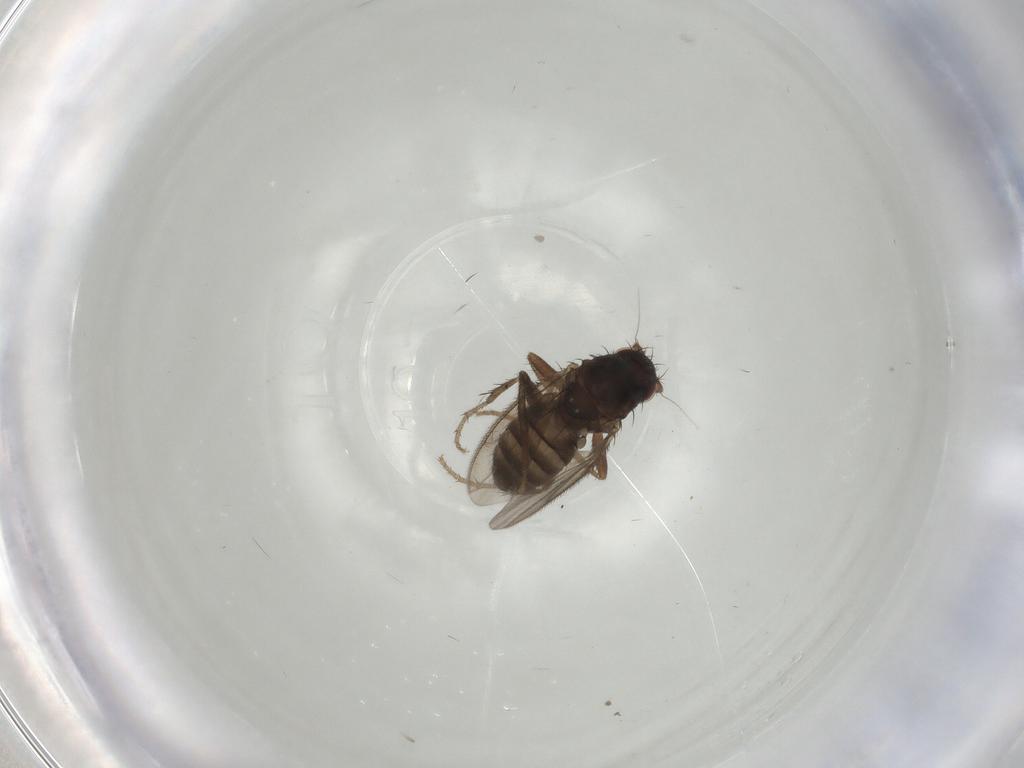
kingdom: Animalia
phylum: Arthropoda
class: Insecta
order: Diptera
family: Sphaeroceridae
